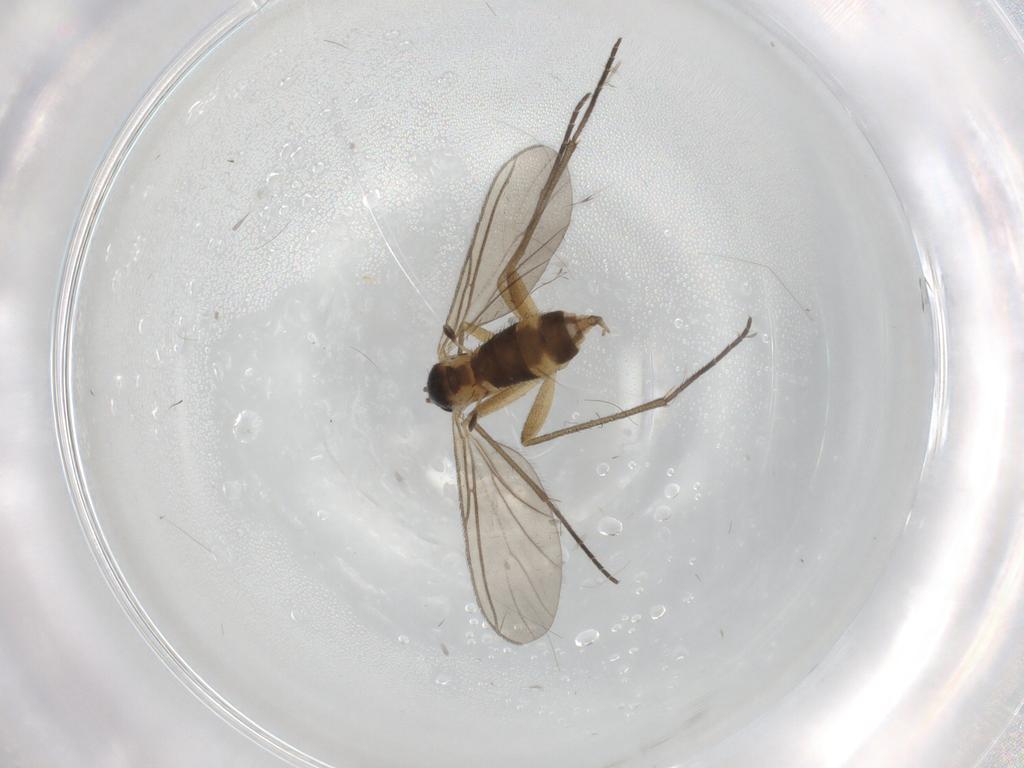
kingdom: Animalia
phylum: Arthropoda
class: Insecta
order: Diptera
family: Sciaridae
